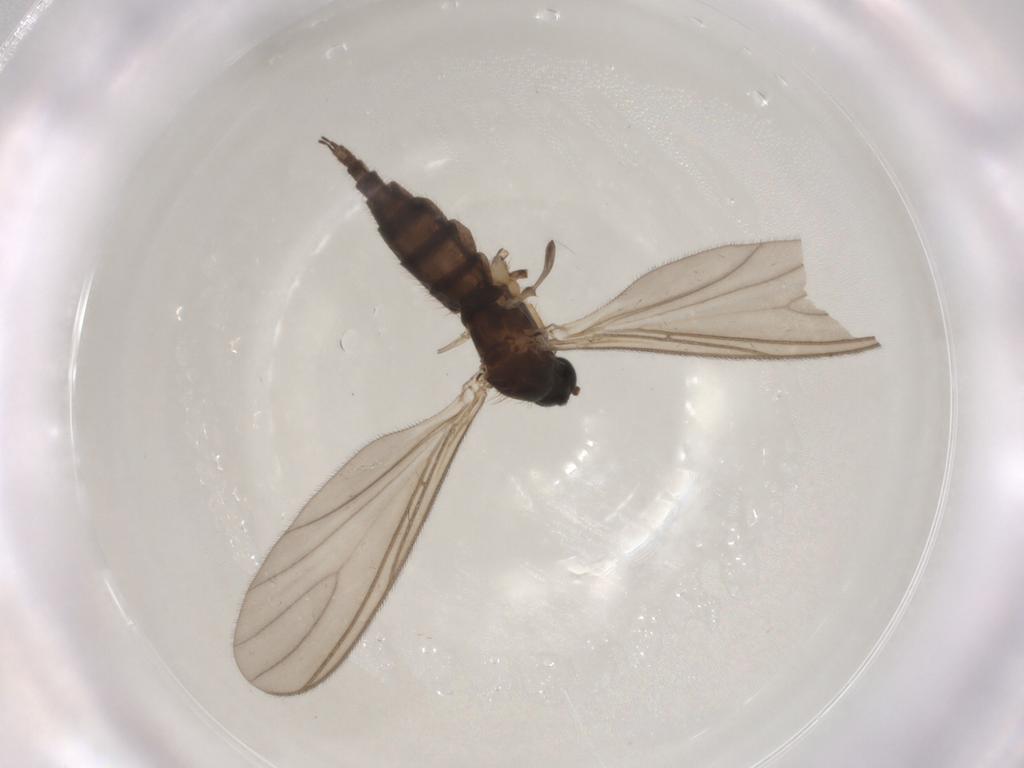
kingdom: Animalia
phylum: Arthropoda
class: Insecta
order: Diptera
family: Sciaridae
